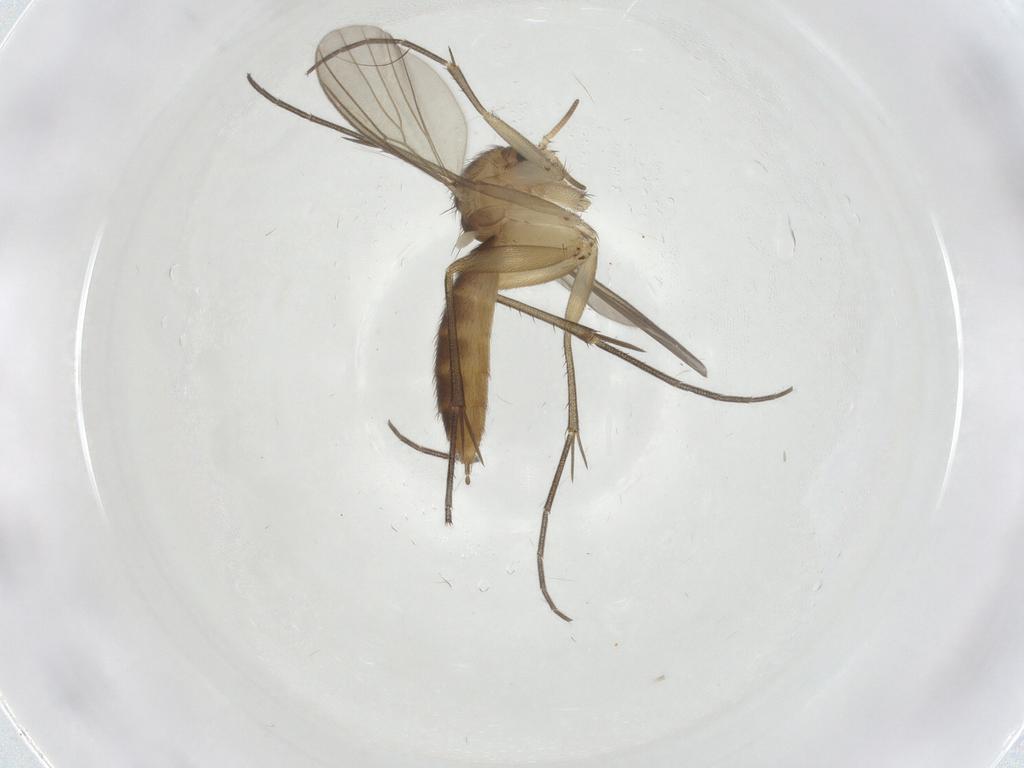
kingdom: Animalia
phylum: Arthropoda
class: Insecta
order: Diptera
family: Mycetophilidae
